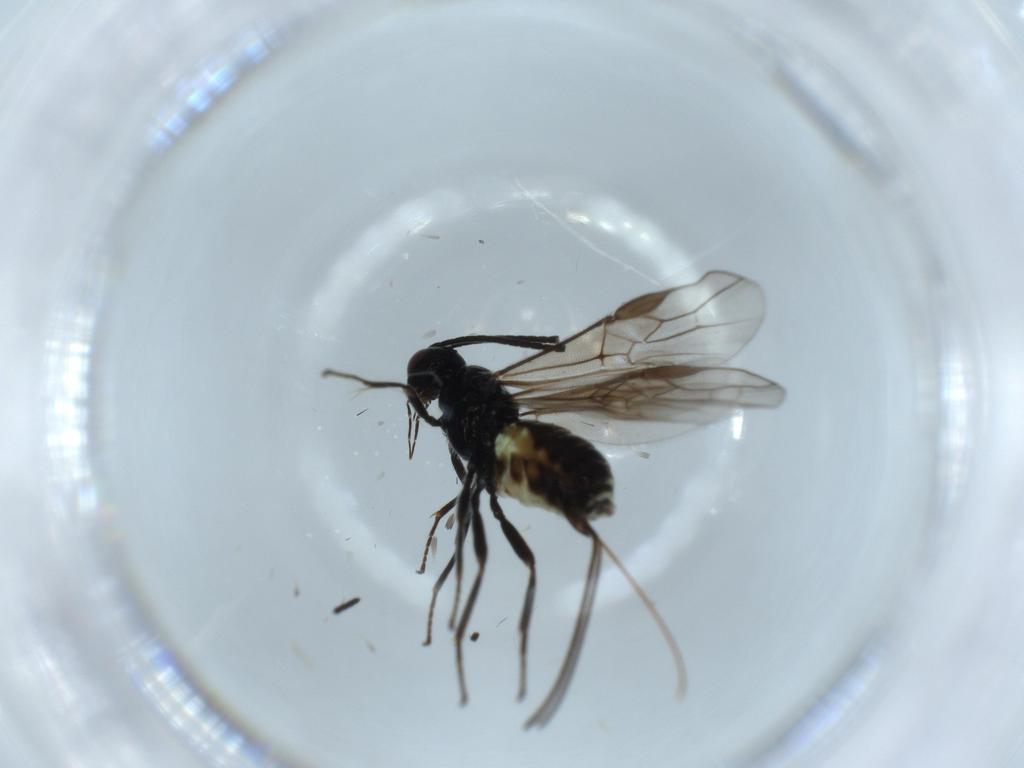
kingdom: Animalia
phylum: Arthropoda
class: Insecta
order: Hymenoptera
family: Braconidae
